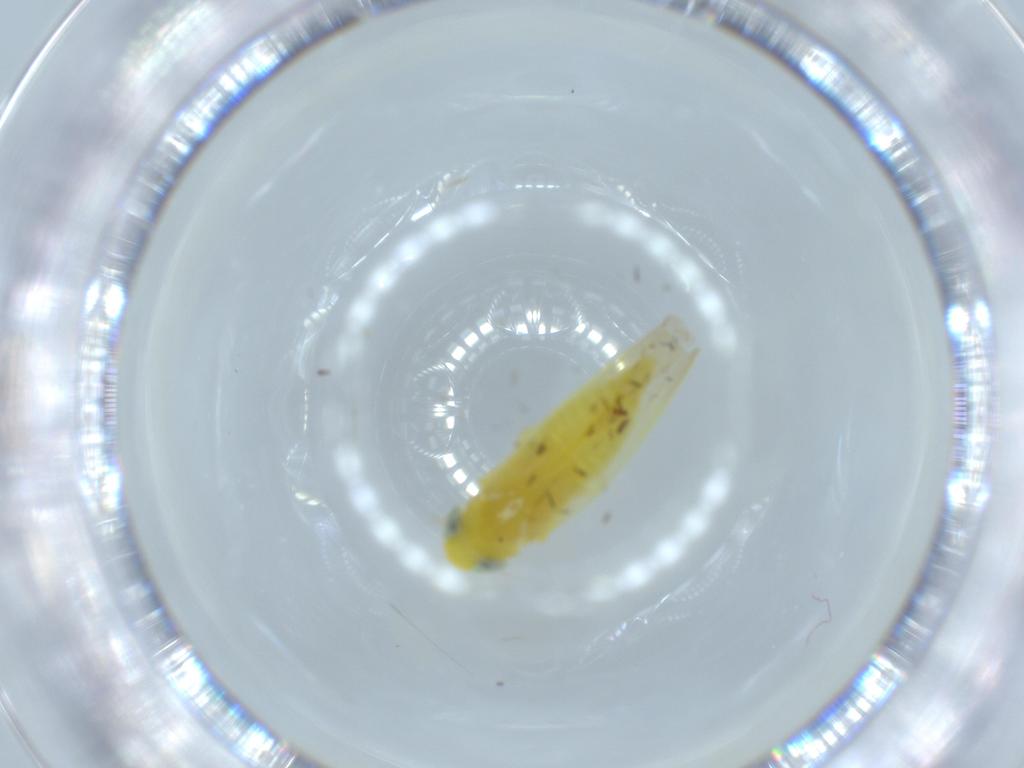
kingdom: Animalia
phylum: Arthropoda
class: Insecta
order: Hemiptera
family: Cicadellidae
